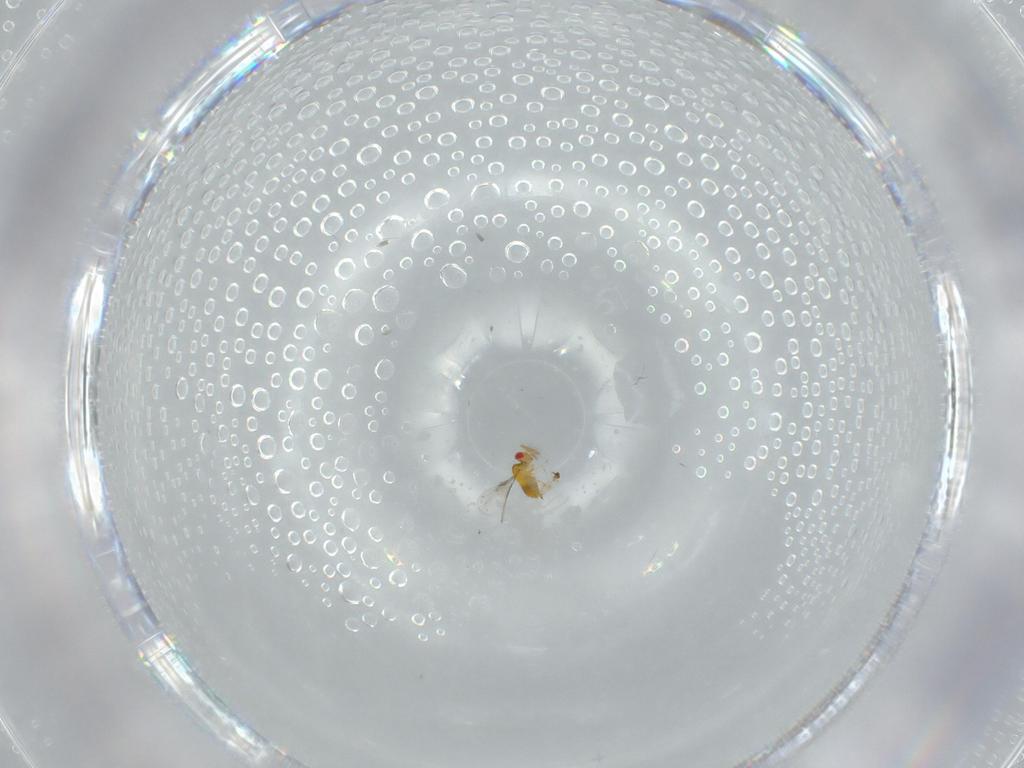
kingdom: Animalia
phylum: Arthropoda
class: Insecta
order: Hymenoptera
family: Trichogrammatidae
